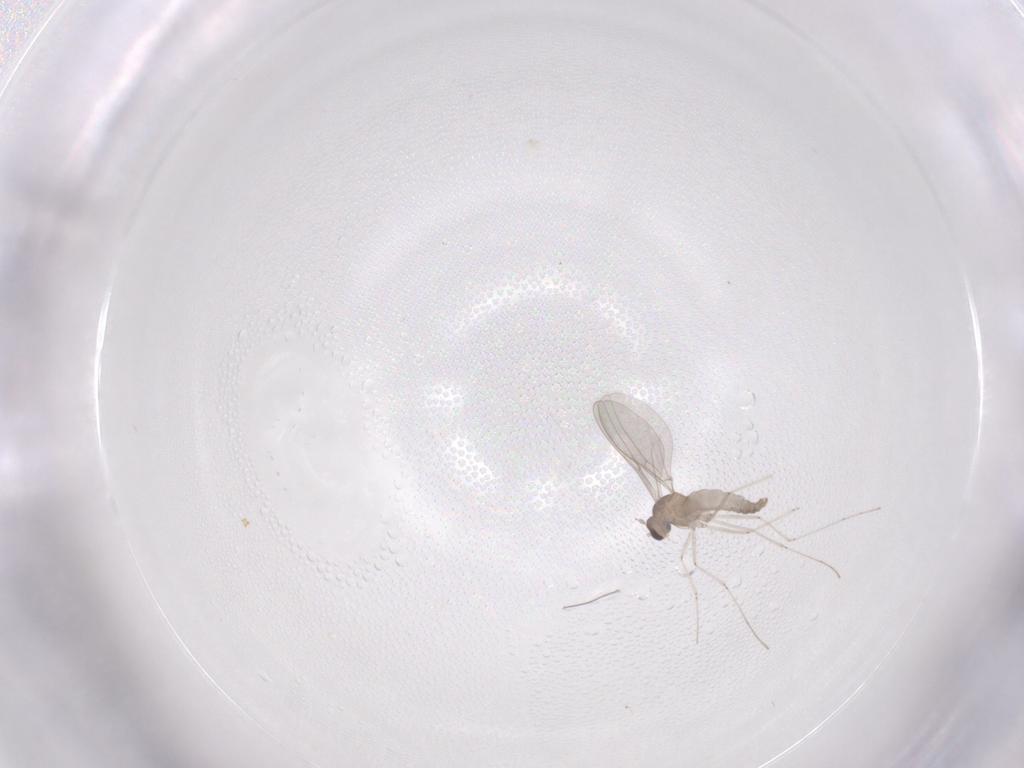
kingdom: Animalia
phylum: Arthropoda
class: Insecta
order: Diptera
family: Cecidomyiidae
